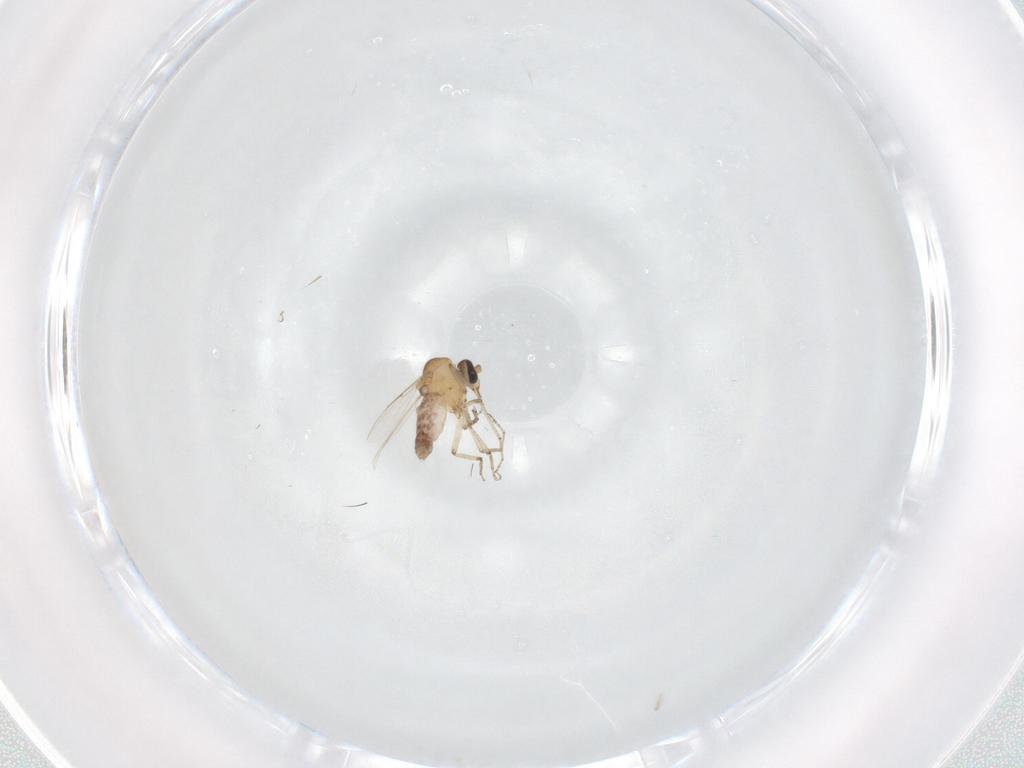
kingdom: Animalia
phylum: Arthropoda
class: Insecta
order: Diptera
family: Ceratopogonidae
